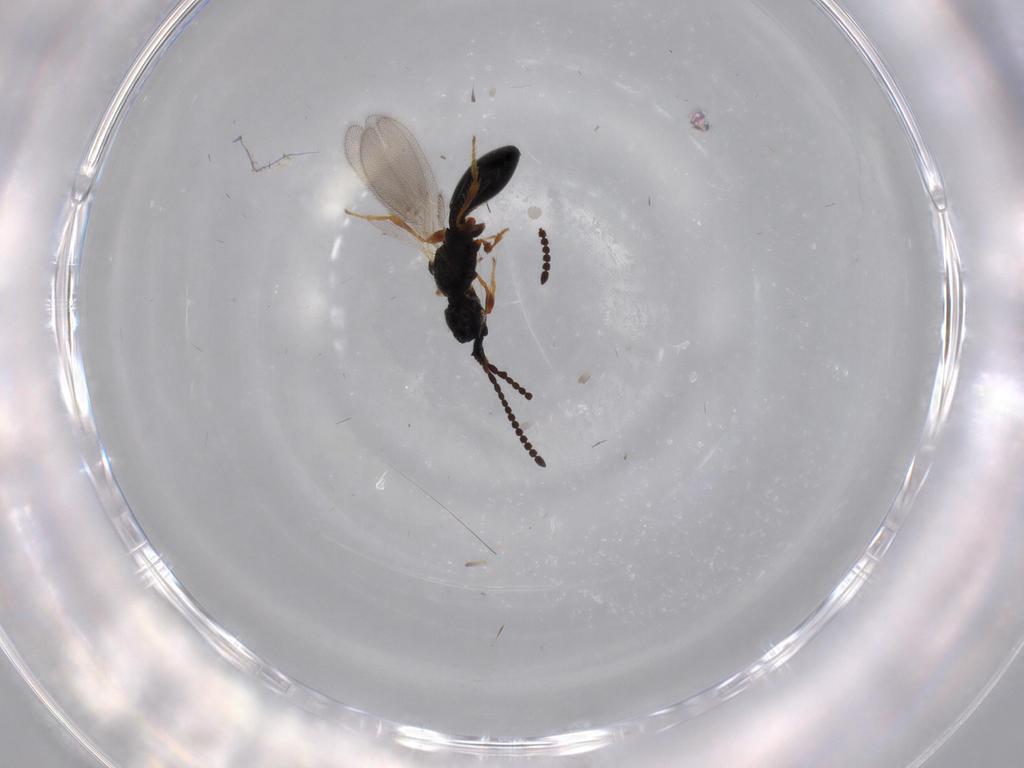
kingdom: Animalia
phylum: Arthropoda
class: Insecta
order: Hymenoptera
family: Diapriidae
